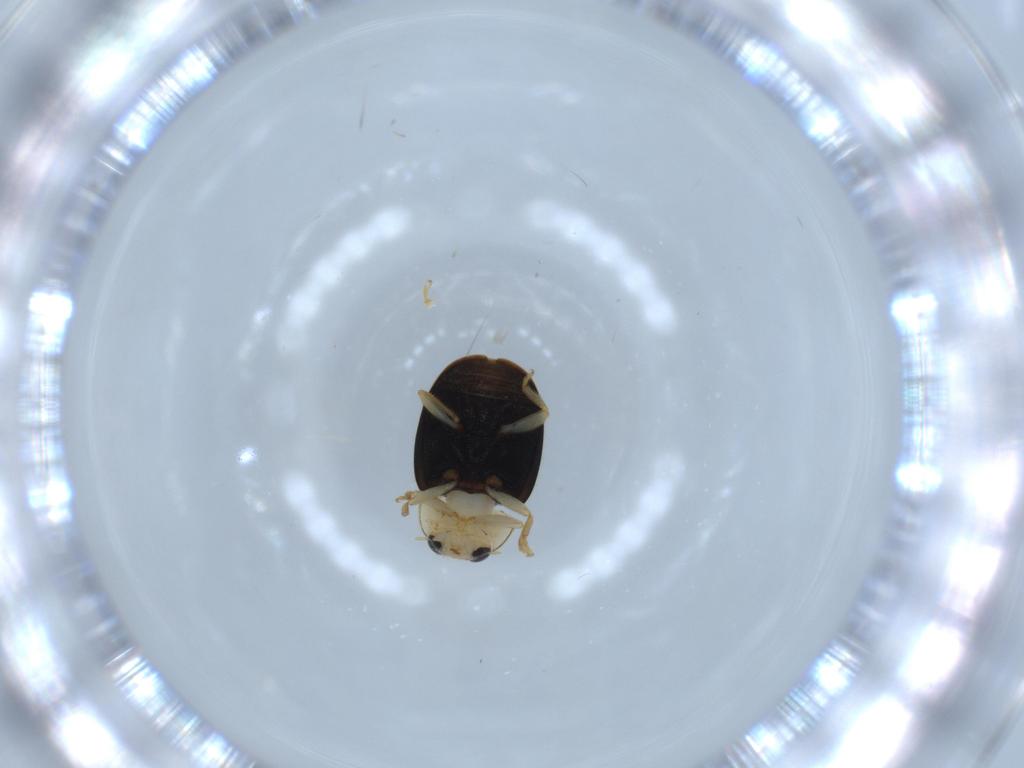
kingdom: Animalia
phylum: Arthropoda
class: Insecta
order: Coleoptera
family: Coccinellidae
